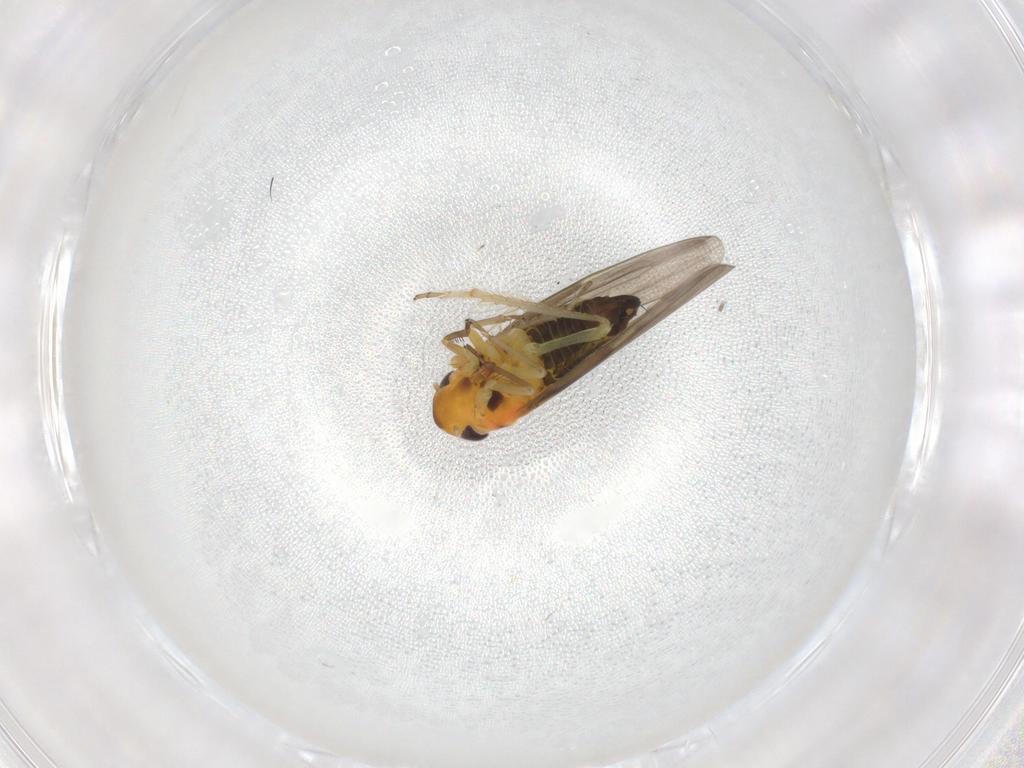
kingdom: Animalia
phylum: Arthropoda
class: Insecta
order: Hemiptera
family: Cicadellidae
